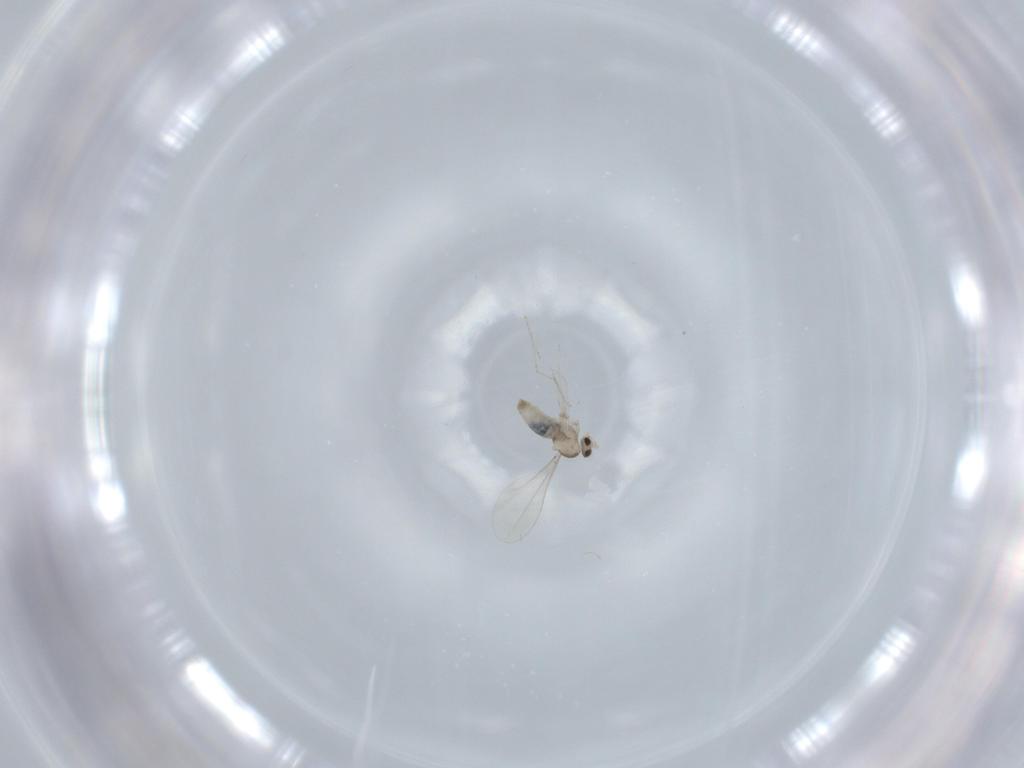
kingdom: Animalia
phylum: Arthropoda
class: Insecta
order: Diptera
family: Cecidomyiidae
